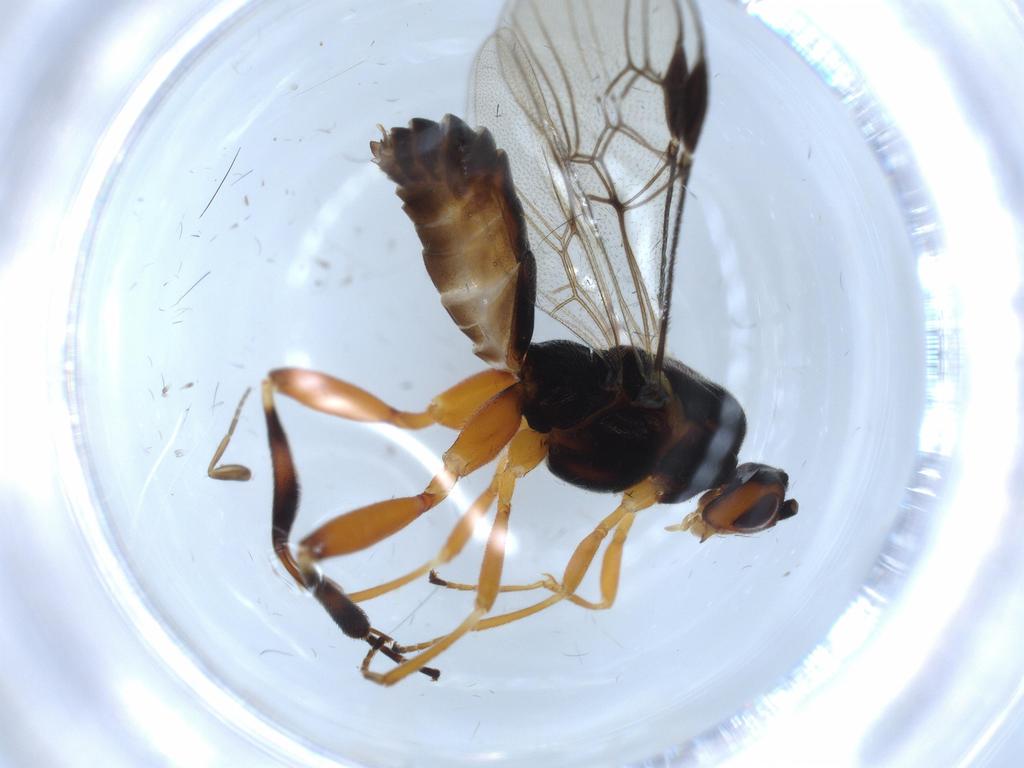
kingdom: Animalia
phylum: Arthropoda
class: Insecta
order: Hymenoptera
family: Braconidae
